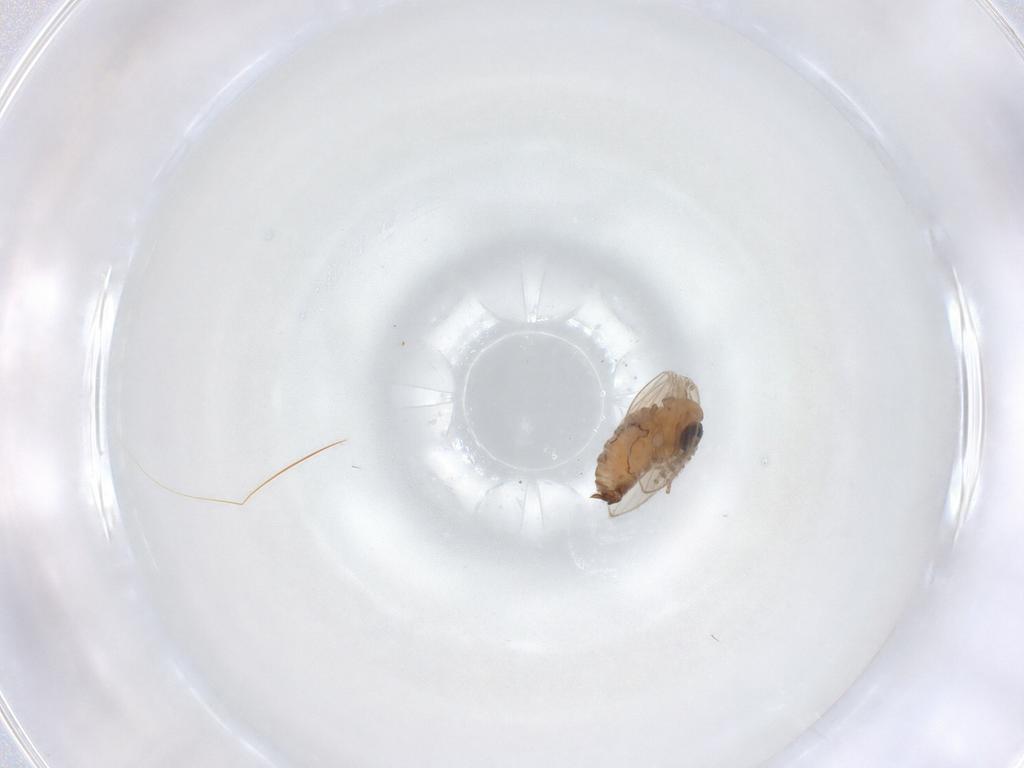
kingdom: Animalia
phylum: Arthropoda
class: Insecta
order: Diptera
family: Psychodidae
